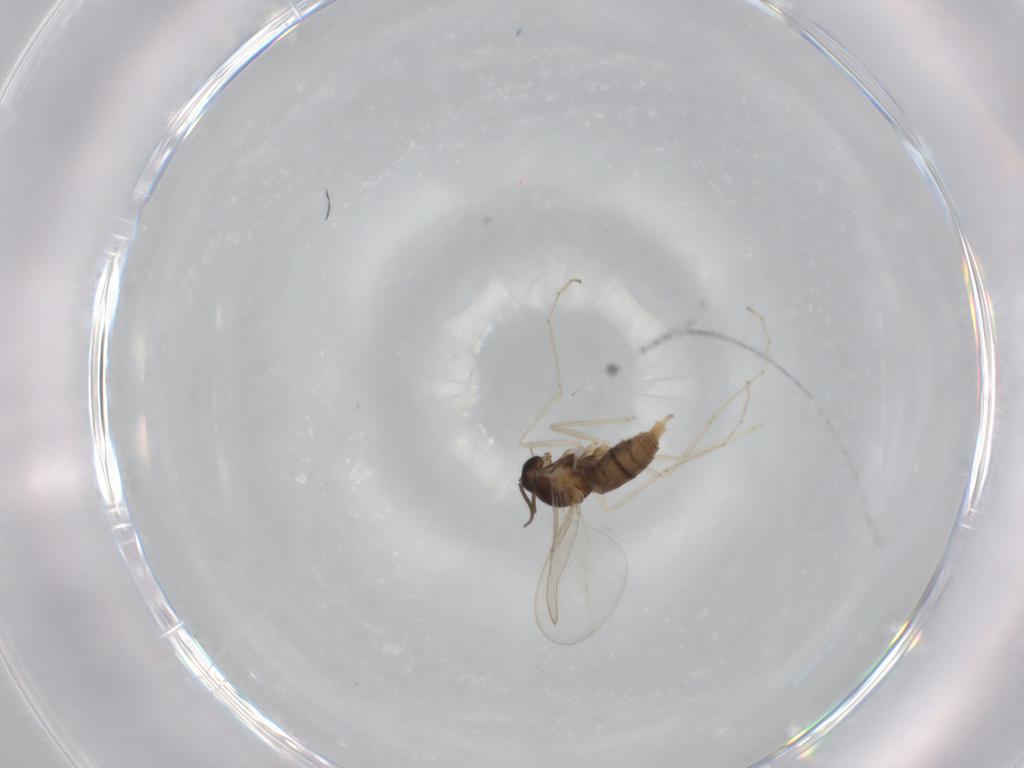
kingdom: Animalia
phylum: Arthropoda
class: Insecta
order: Diptera
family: Cecidomyiidae
